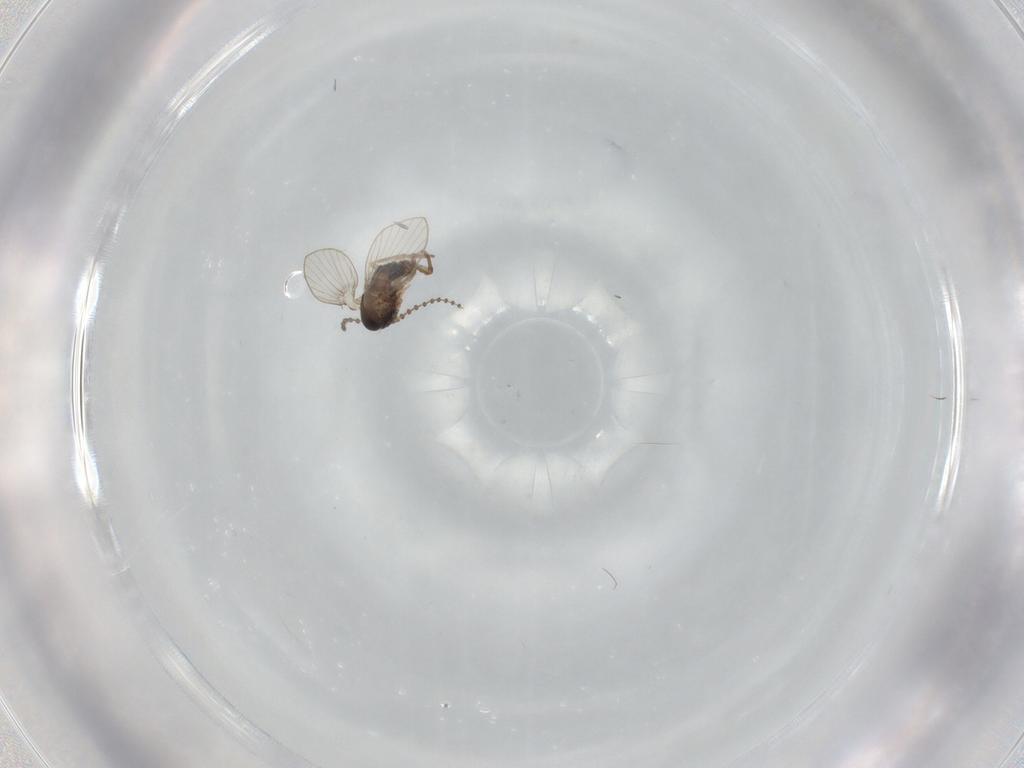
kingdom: Animalia
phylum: Arthropoda
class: Insecta
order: Diptera
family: Psychodidae
